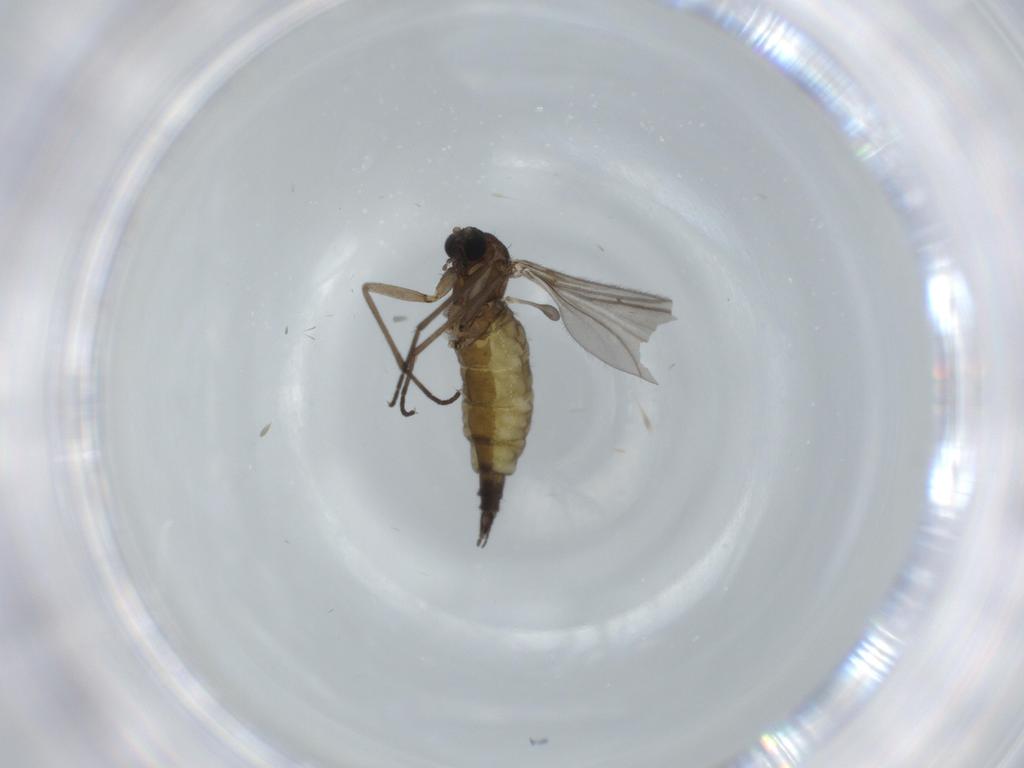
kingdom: Animalia
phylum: Arthropoda
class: Insecta
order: Diptera
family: Sciaridae
